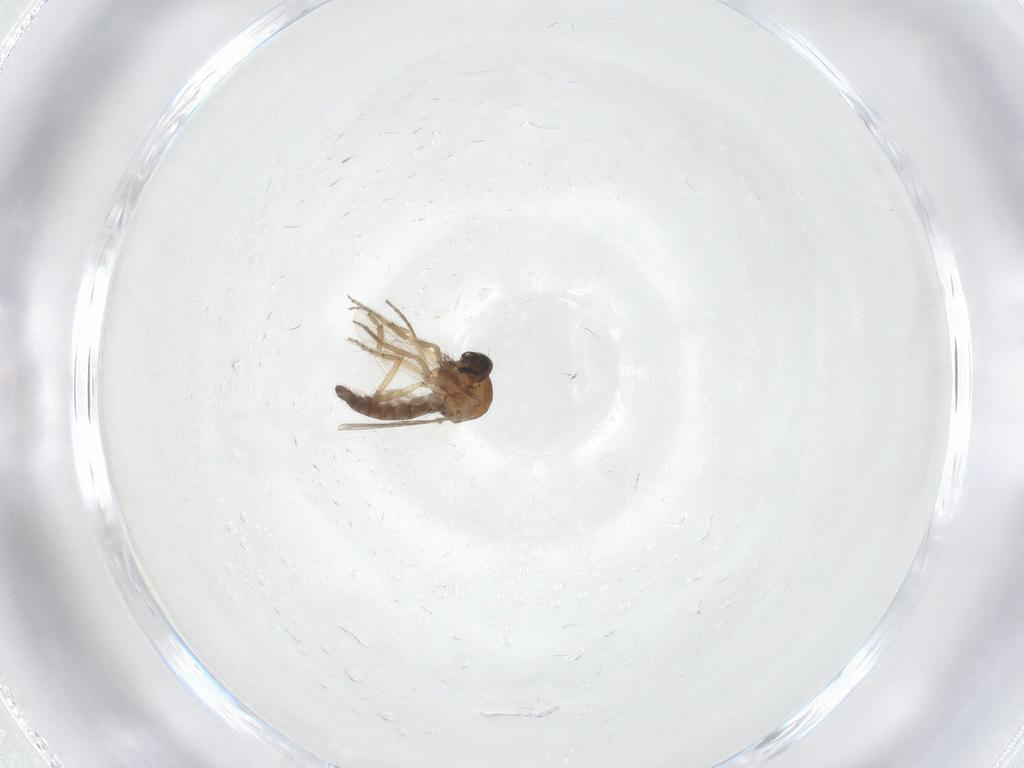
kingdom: Animalia
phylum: Arthropoda
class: Insecta
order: Diptera
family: Ceratopogonidae
